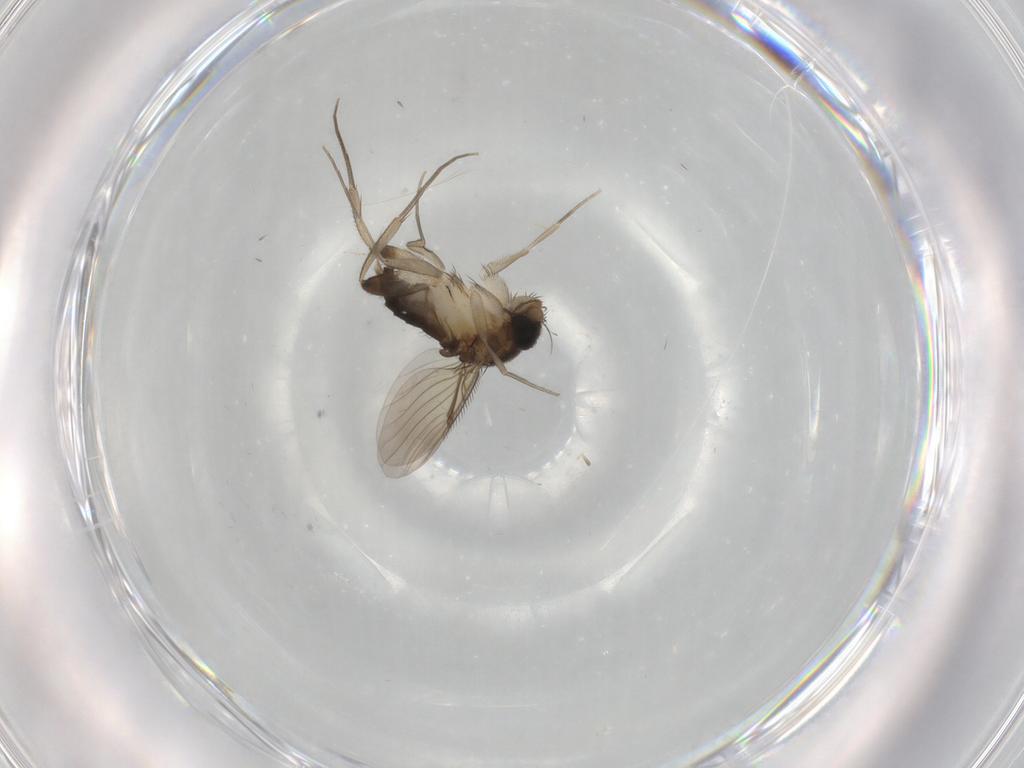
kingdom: Animalia
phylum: Arthropoda
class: Insecta
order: Diptera
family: Phoridae
